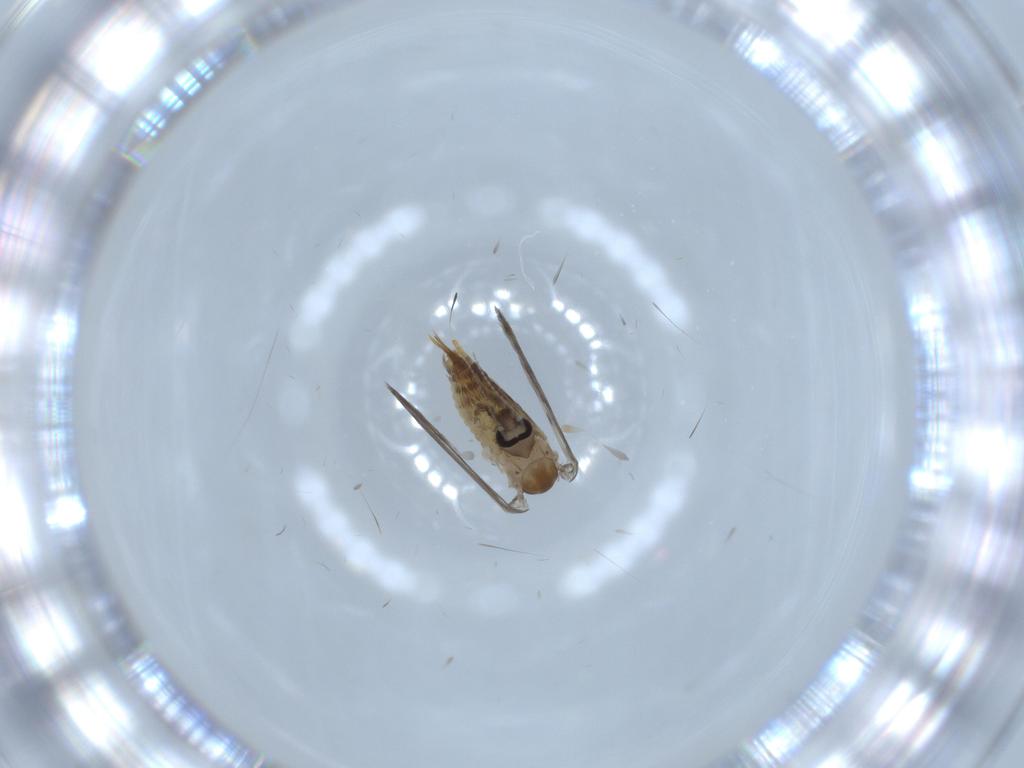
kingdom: Animalia
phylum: Arthropoda
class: Insecta
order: Diptera
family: Psychodidae
